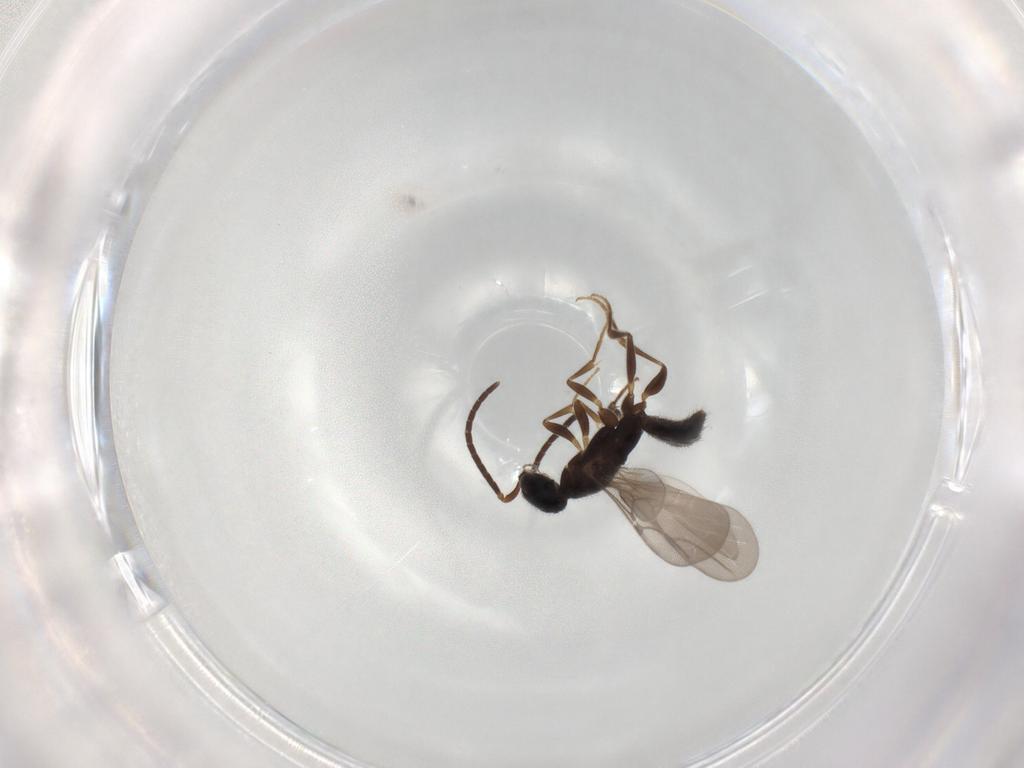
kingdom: Animalia
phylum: Arthropoda
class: Insecta
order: Hymenoptera
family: Bethylidae
